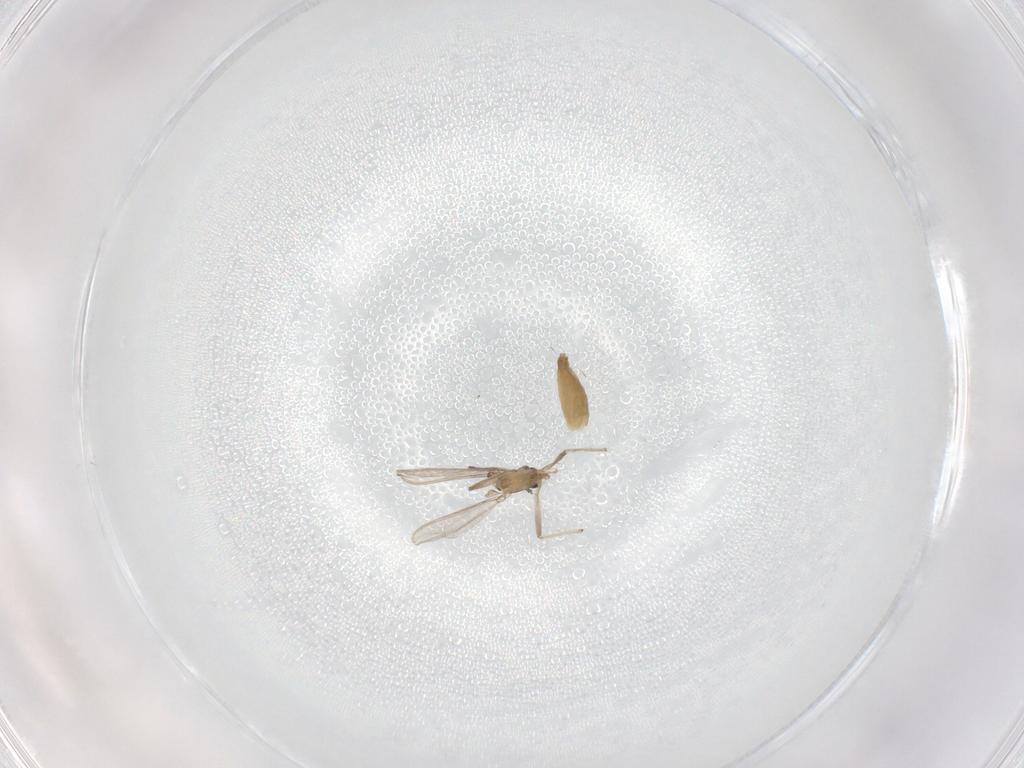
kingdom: Animalia
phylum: Arthropoda
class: Insecta
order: Diptera
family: Chironomidae
